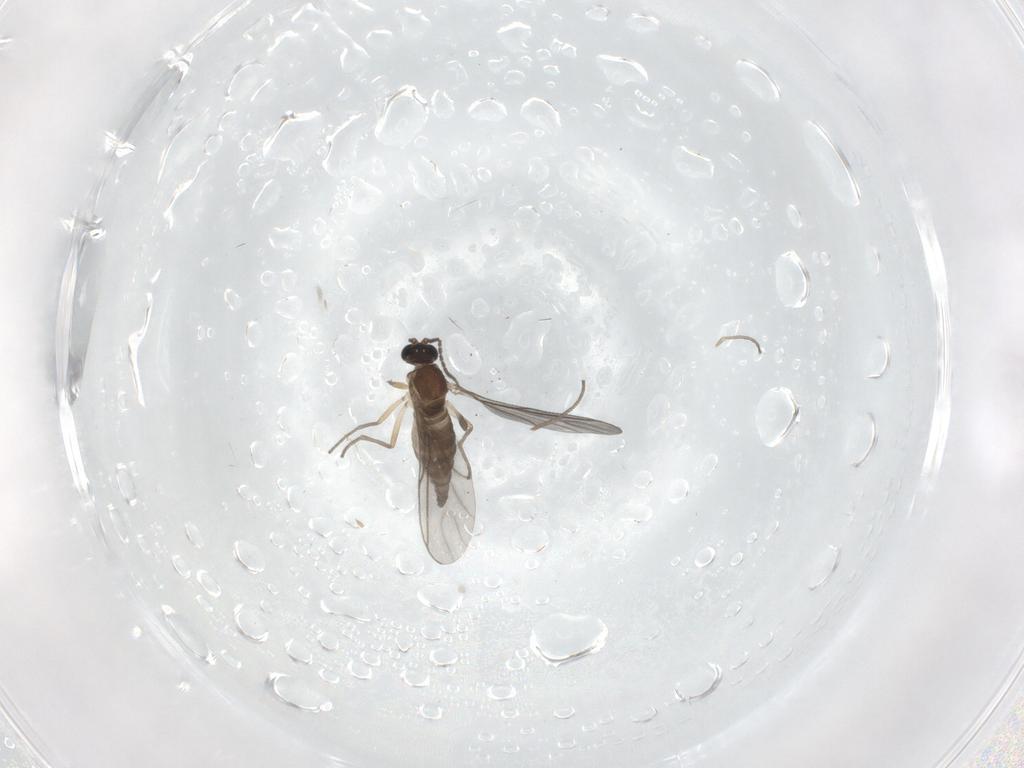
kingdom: Animalia
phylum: Arthropoda
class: Insecta
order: Diptera
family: Sciaridae
